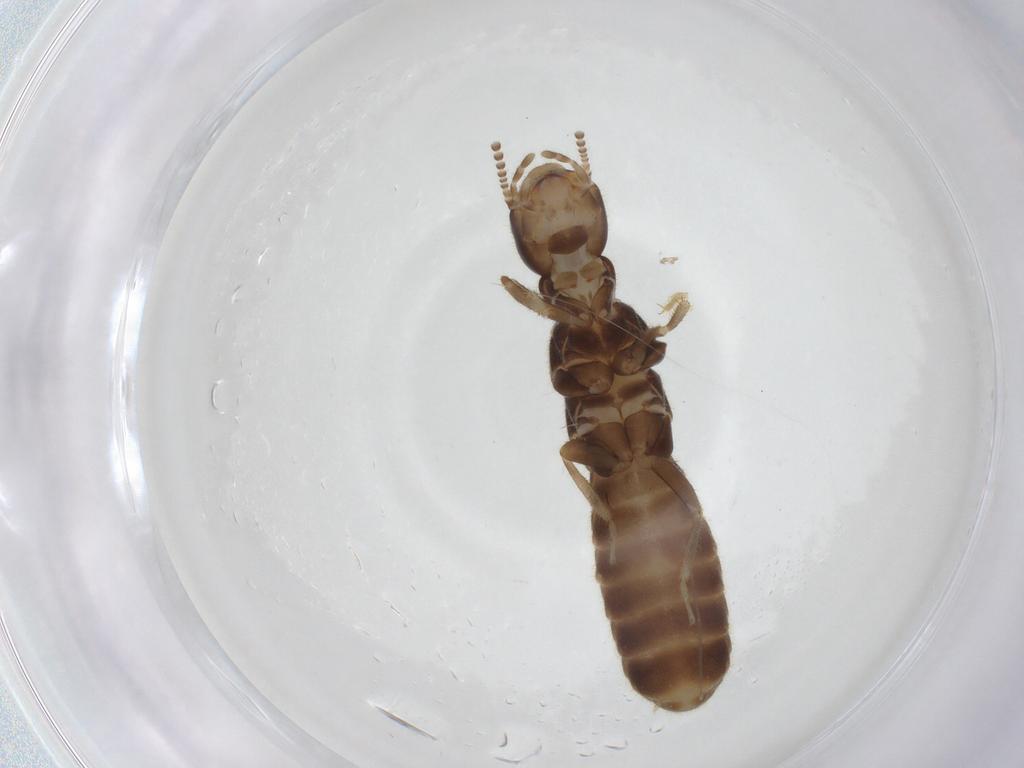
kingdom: Animalia
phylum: Arthropoda
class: Insecta
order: Blattodea
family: Rhinotermitidae
